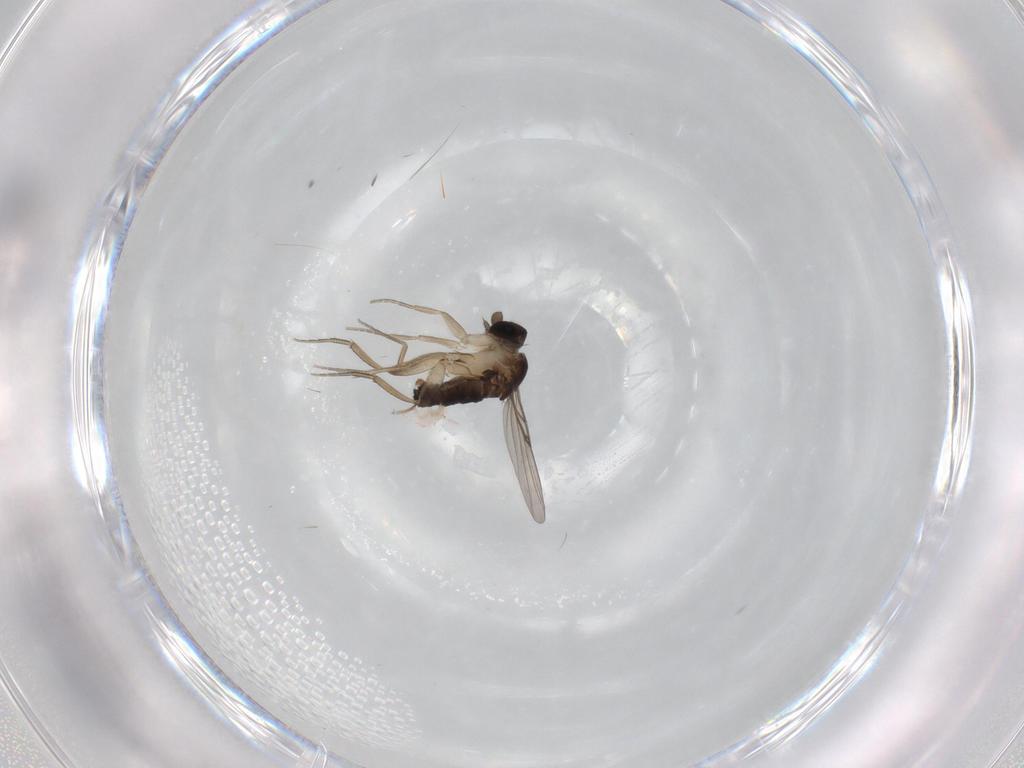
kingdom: Animalia
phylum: Arthropoda
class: Insecta
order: Diptera
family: Phoridae
